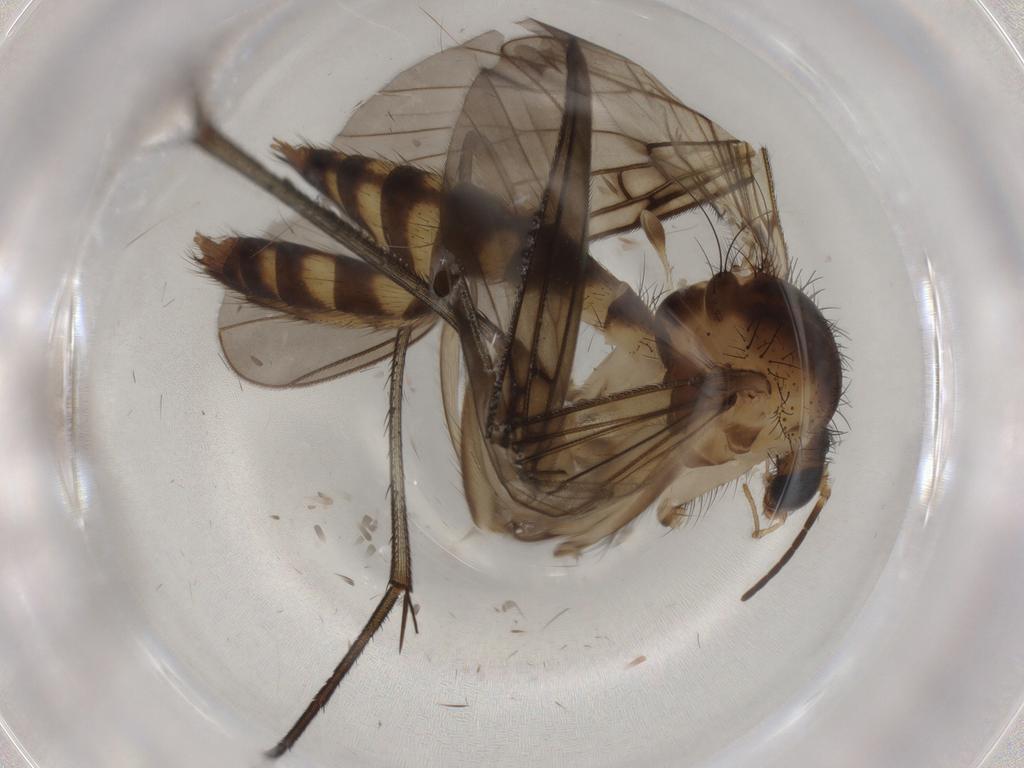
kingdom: Animalia
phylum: Arthropoda
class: Insecta
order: Diptera
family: Mycetophilidae
